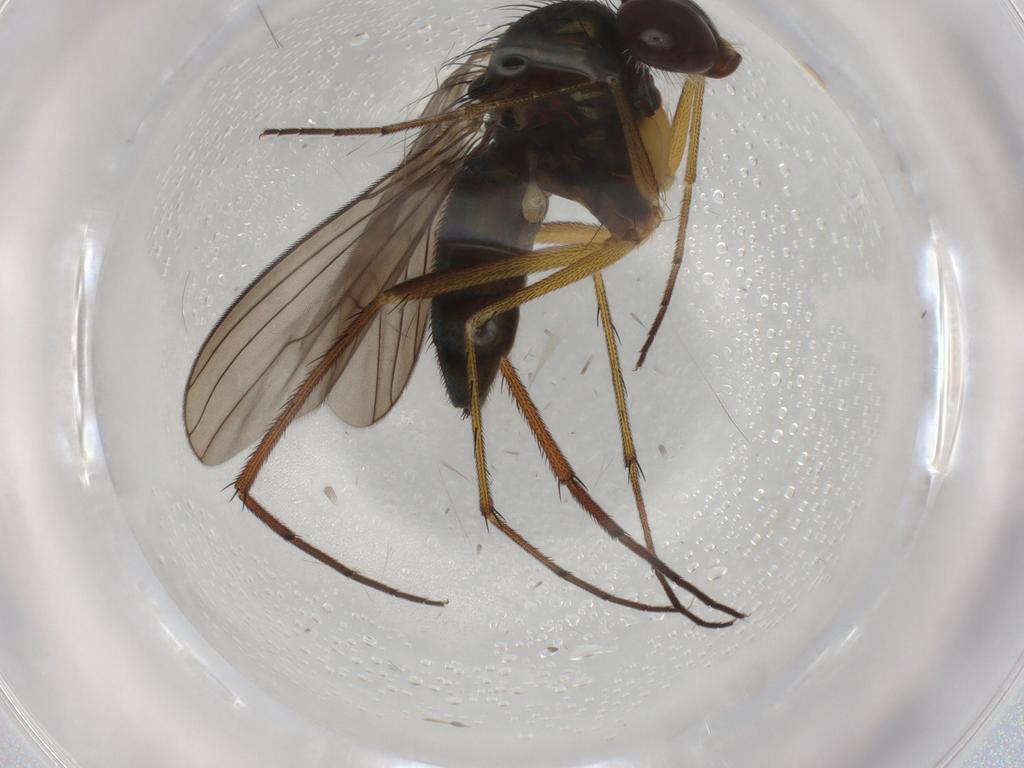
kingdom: Animalia
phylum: Arthropoda
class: Insecta
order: Diptera
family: Dolichopodidae
